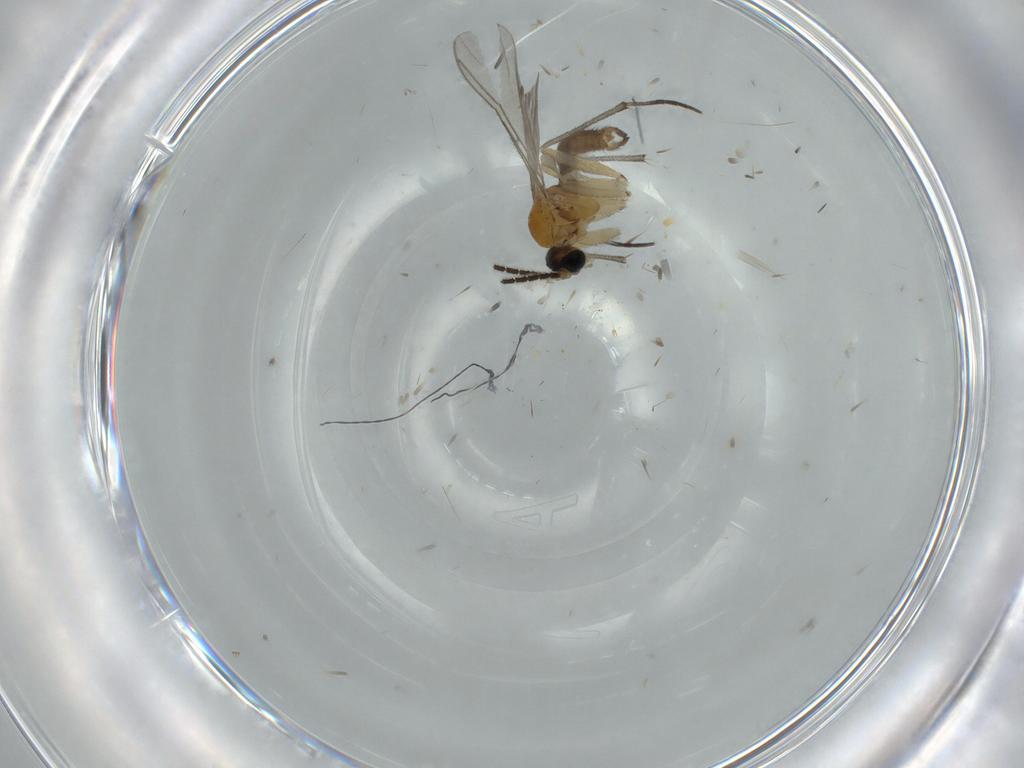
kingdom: Animalia
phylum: Arthropoda
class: Insecta
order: Diptera
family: Sciaridae
